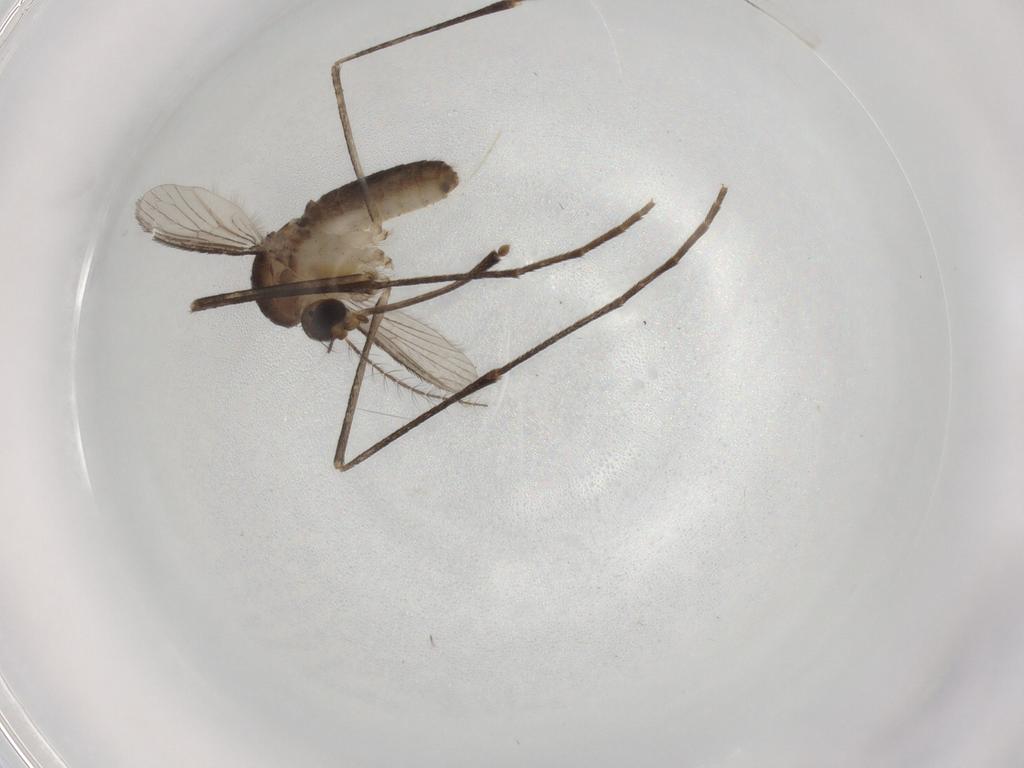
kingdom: Animalia
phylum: Arthropoda
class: Insecta
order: Diptera
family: Culicidae
